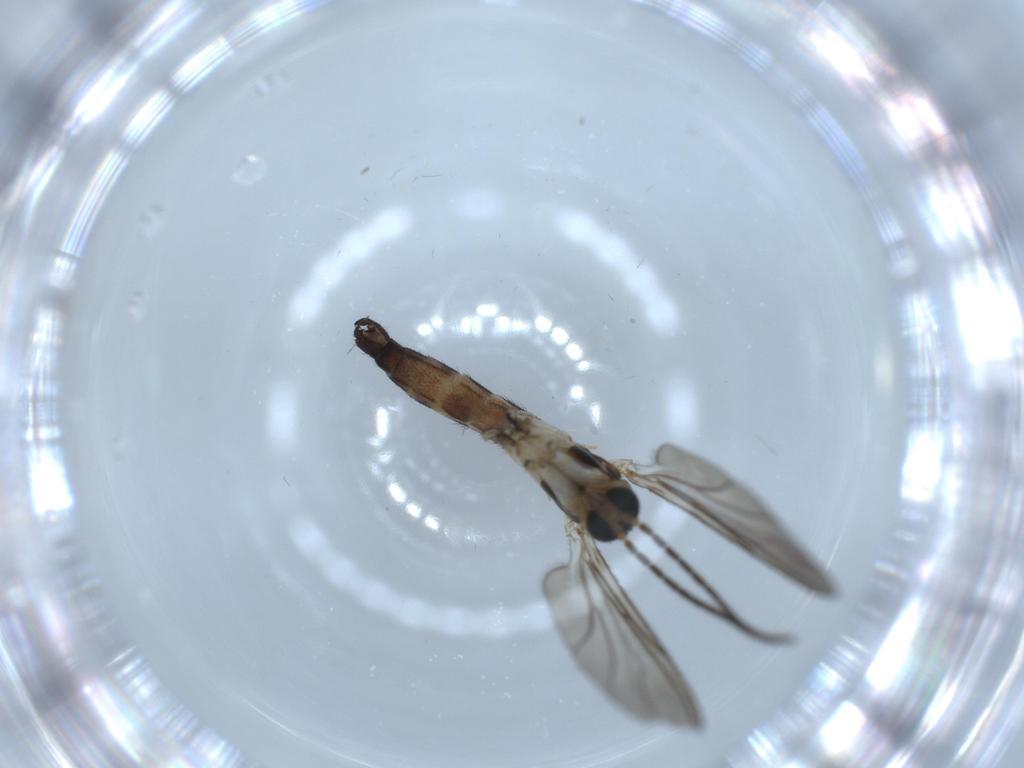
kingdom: Animalia
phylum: Arthropoda
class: Insecta
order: Diptera
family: Sciaridae
